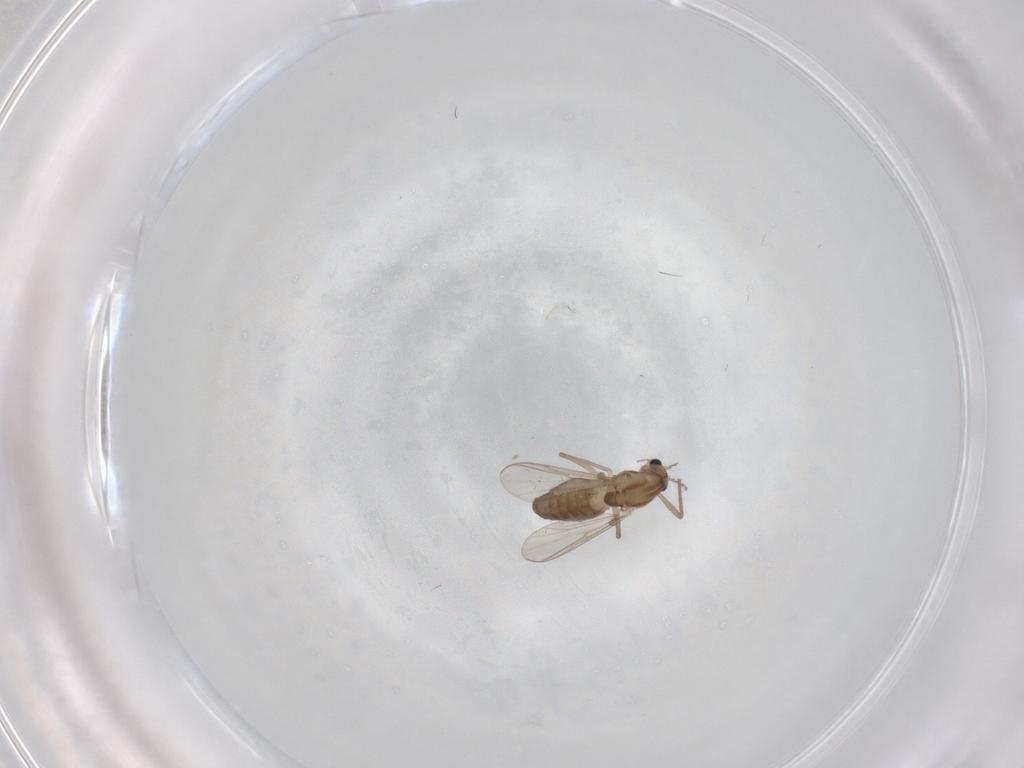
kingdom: Animalia
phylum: Arthropoda
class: Insecta
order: Diptera
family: Chironomidae
